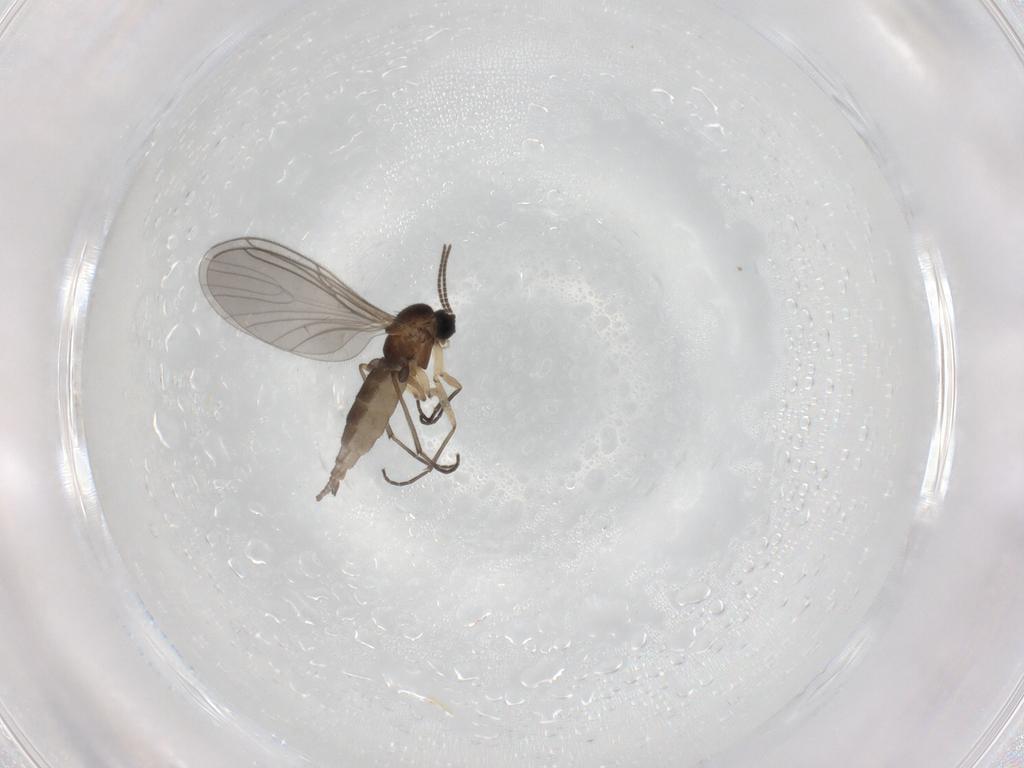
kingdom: Animalia
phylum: Arthropoda
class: Insecta
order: Diptera
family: Sciaridae
